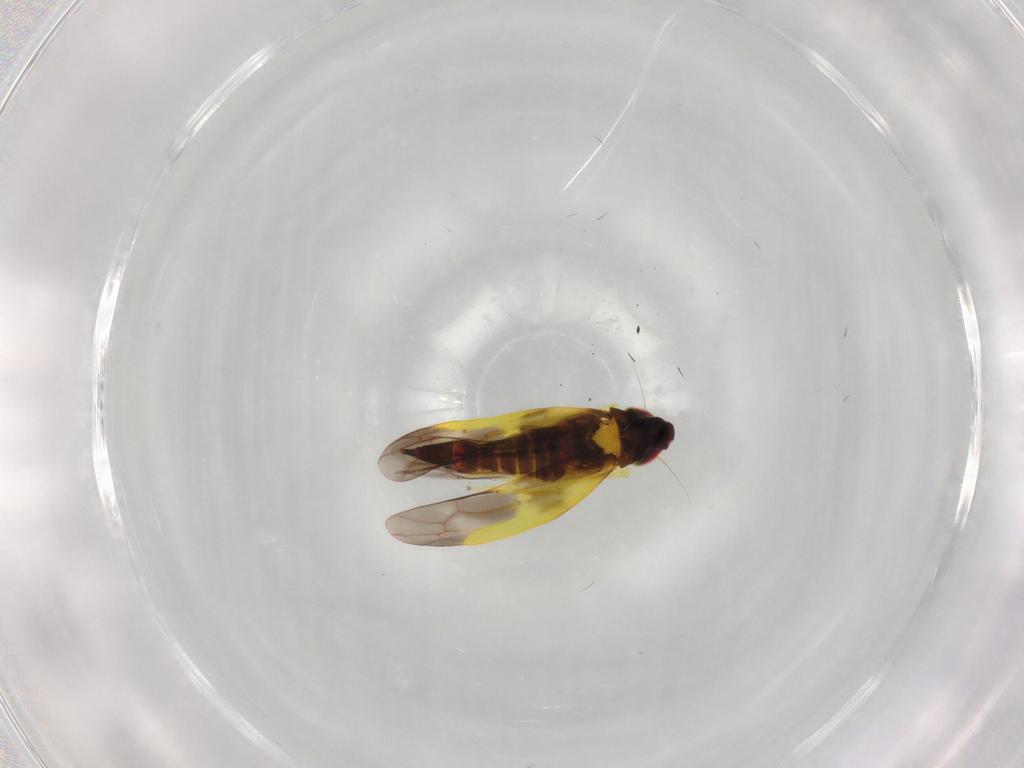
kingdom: Animalia
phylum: Arthropoda
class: Insecta
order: Hemiptera
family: Cicadellidae
